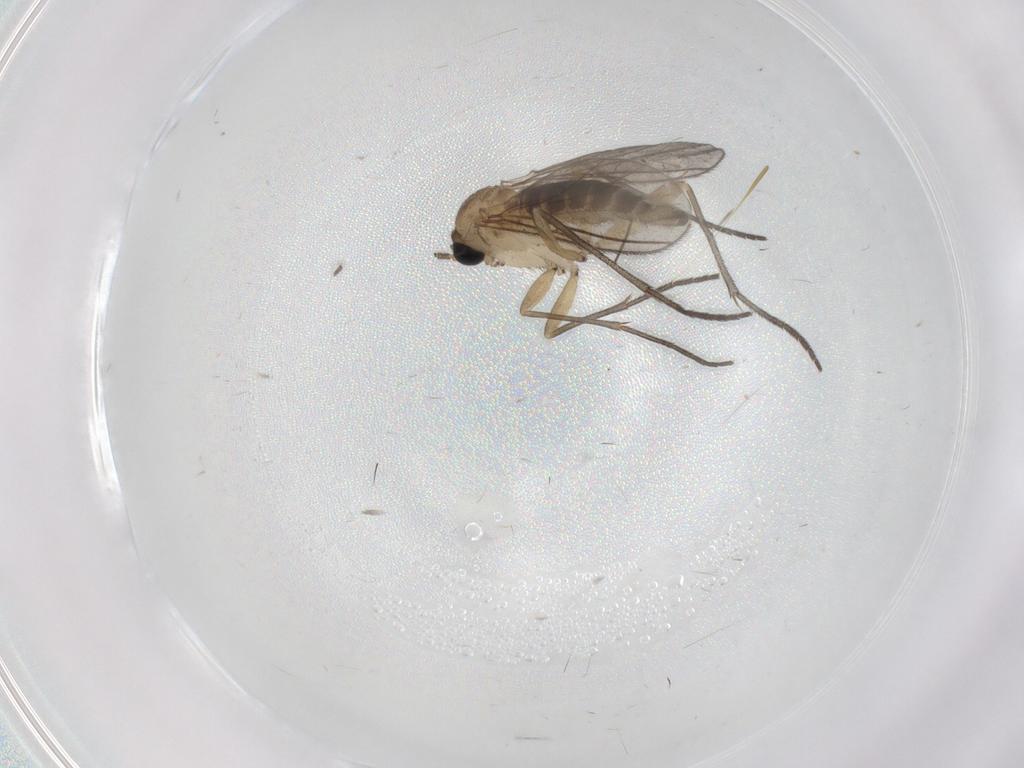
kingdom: Animalia
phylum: Arthropoda
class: Insecta
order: Diptera
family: Sciaridae
